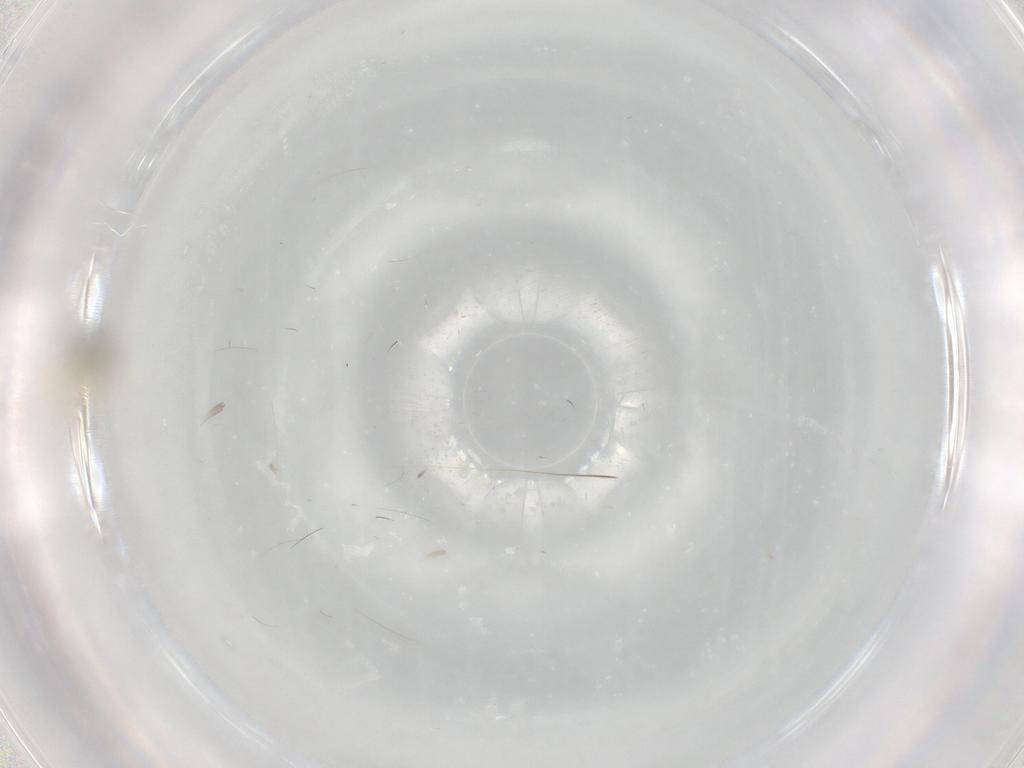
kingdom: Animalia
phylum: Arthropoda
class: Insecta
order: Diptera
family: Cecidomyiidae
